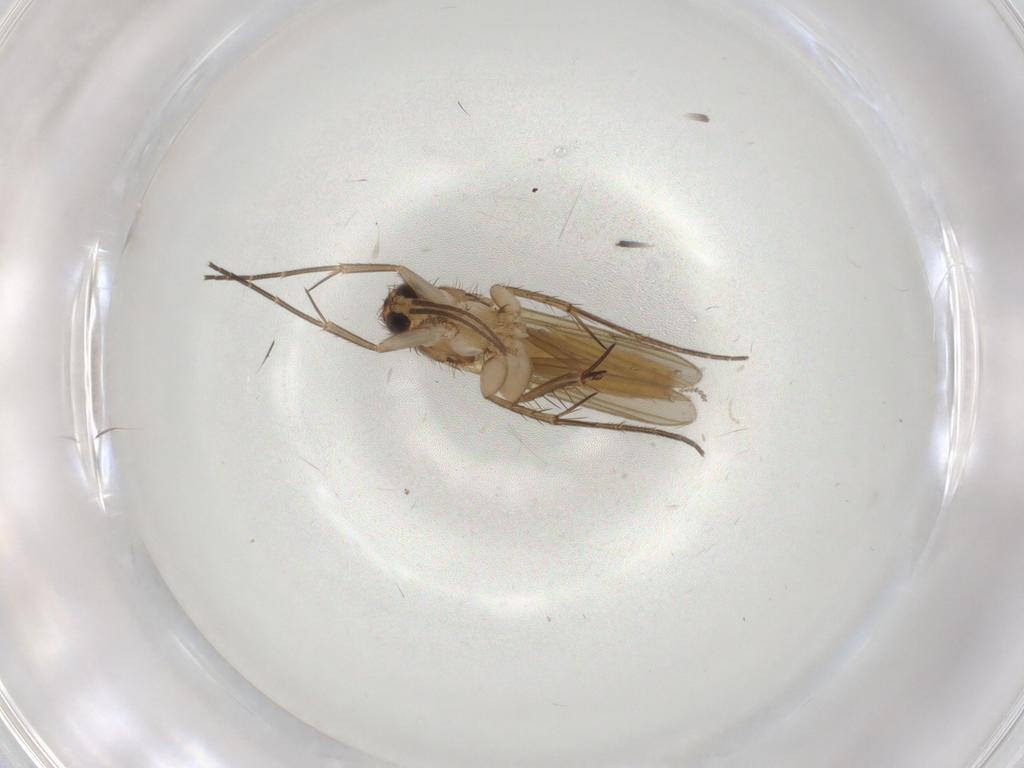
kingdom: Animalia
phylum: Arthropoda
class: Insecta
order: Diptera
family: Mycetophilidae
